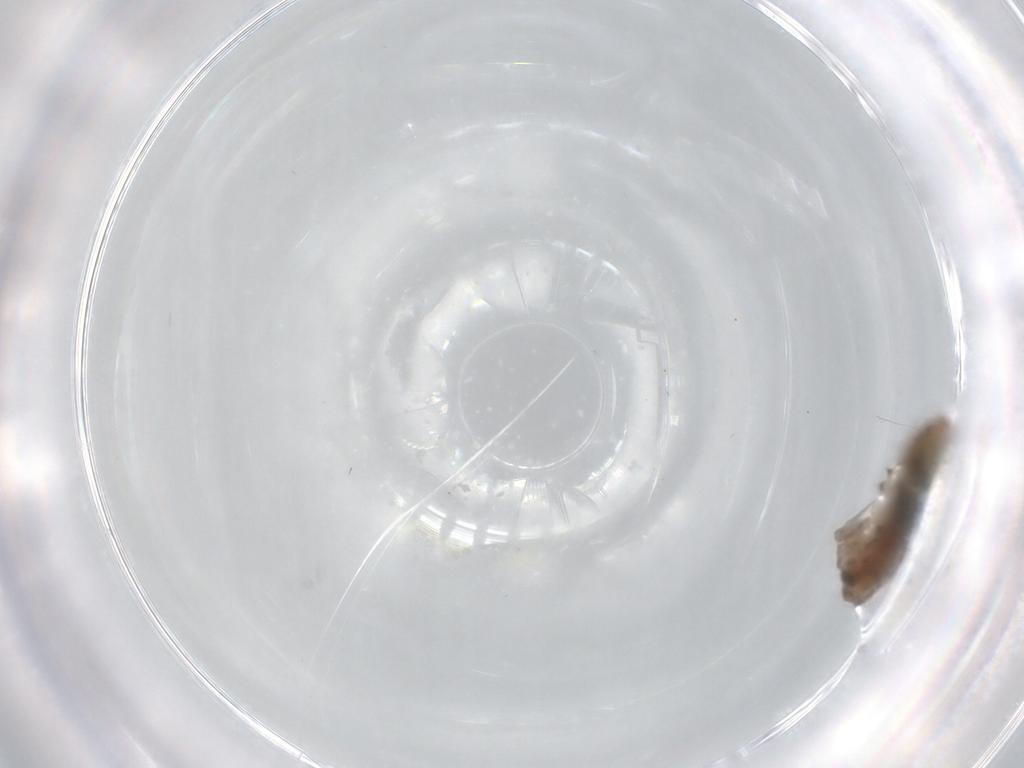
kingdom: Animalia
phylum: Arthropoda
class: Insecta
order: Orthoptera
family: Mogoplistidae
